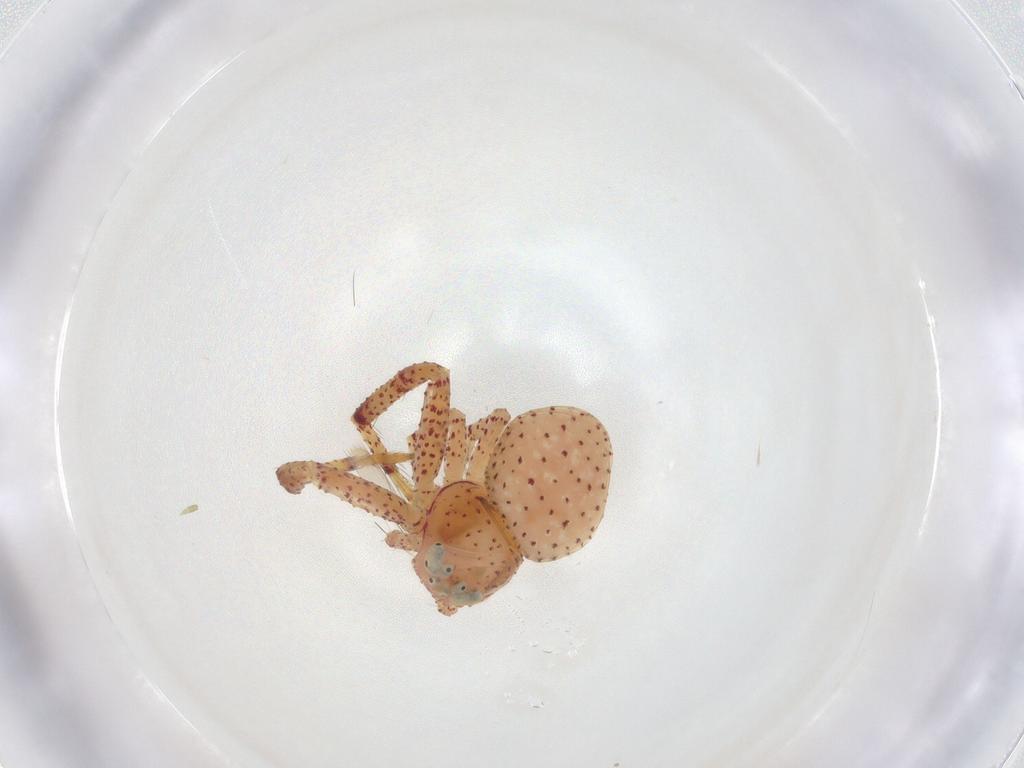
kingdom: Animalia
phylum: Arthropoda
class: Arachnida
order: Araneae
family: Thomisidae
